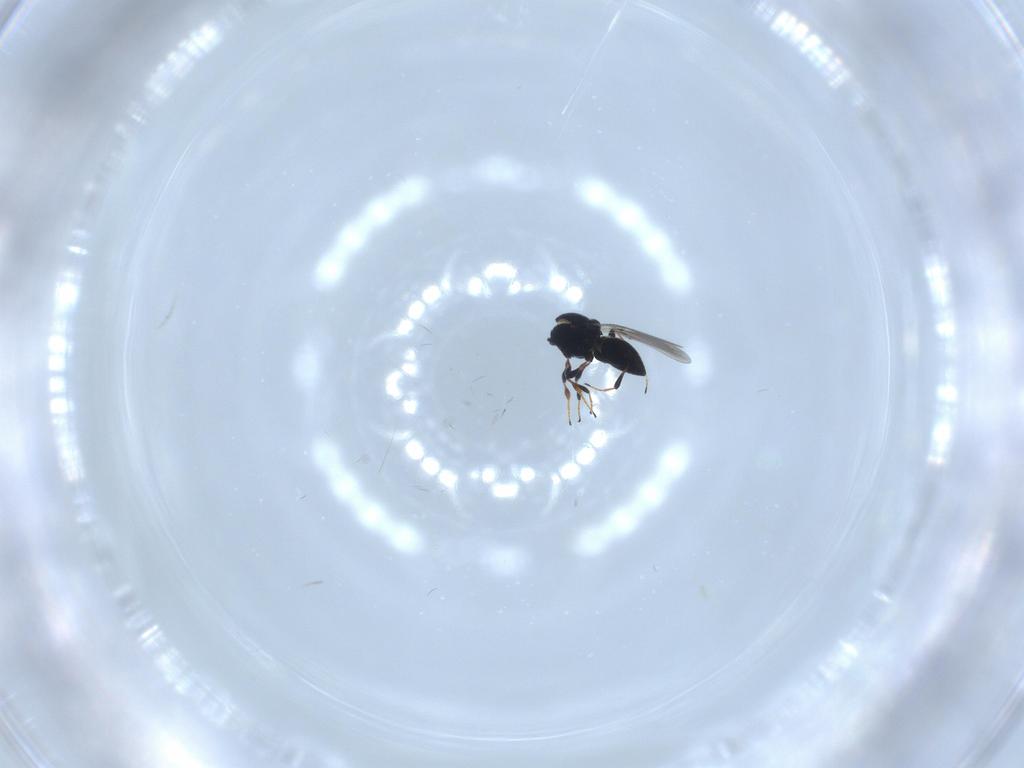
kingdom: Animalia
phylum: Arthropoda
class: Insecta
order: Hymenoptera
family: Platygastridae
